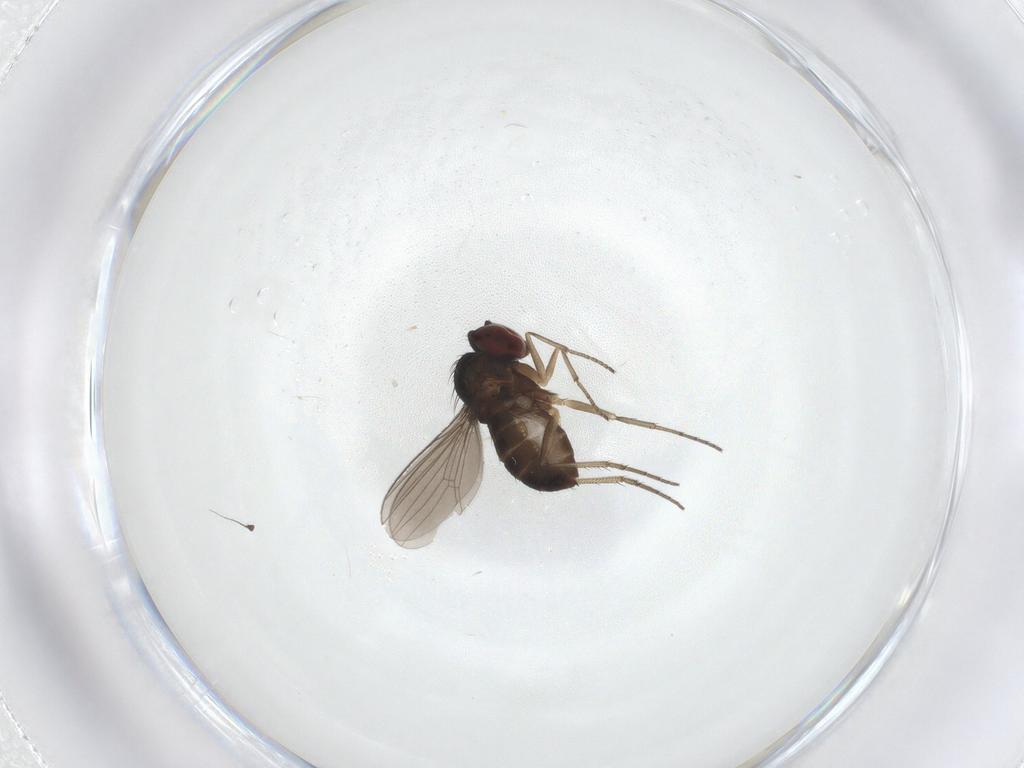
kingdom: Animalia
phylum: Arthropoda
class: Insecta
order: Diptera
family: Dolichopodidae
